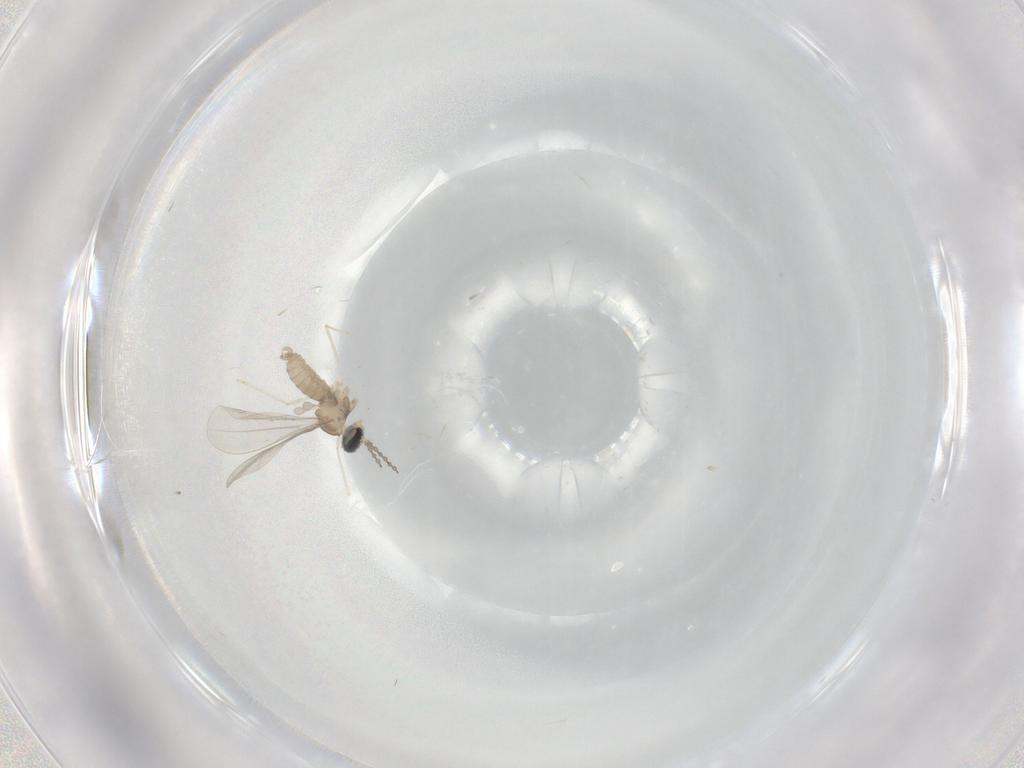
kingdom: Animalia
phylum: Arthropoda
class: Insecta
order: Diptera
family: Cecidomyiidae
